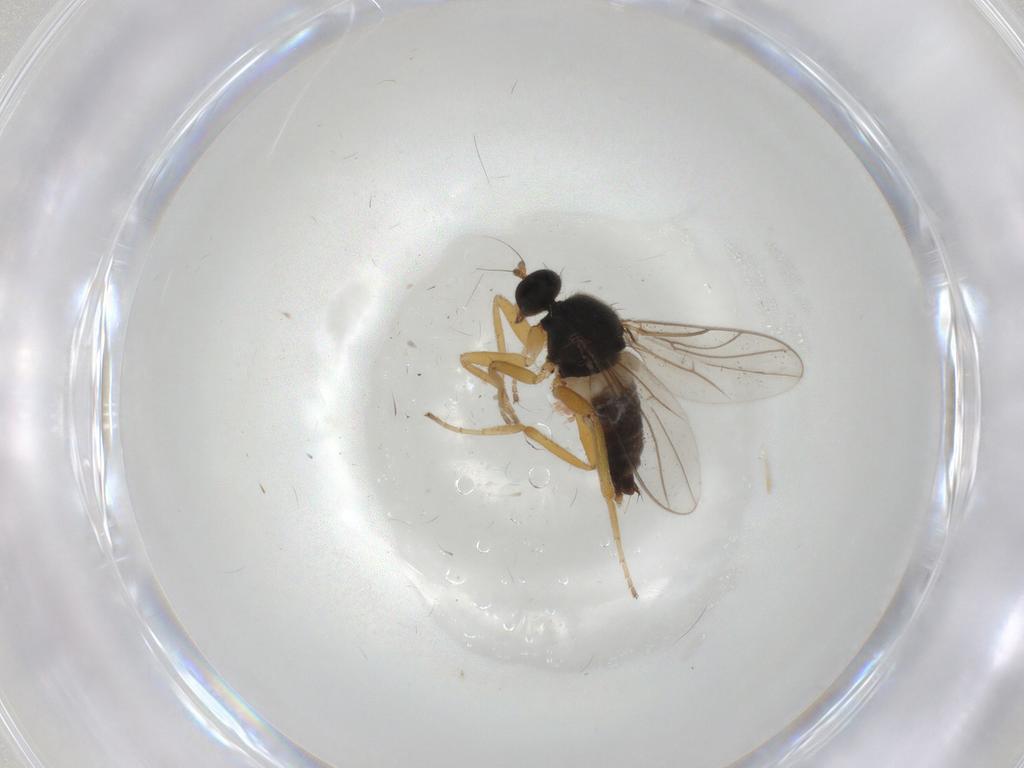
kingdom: Animalia
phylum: Arthropoda
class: Insecta
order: Diptera
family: Hybotidae
